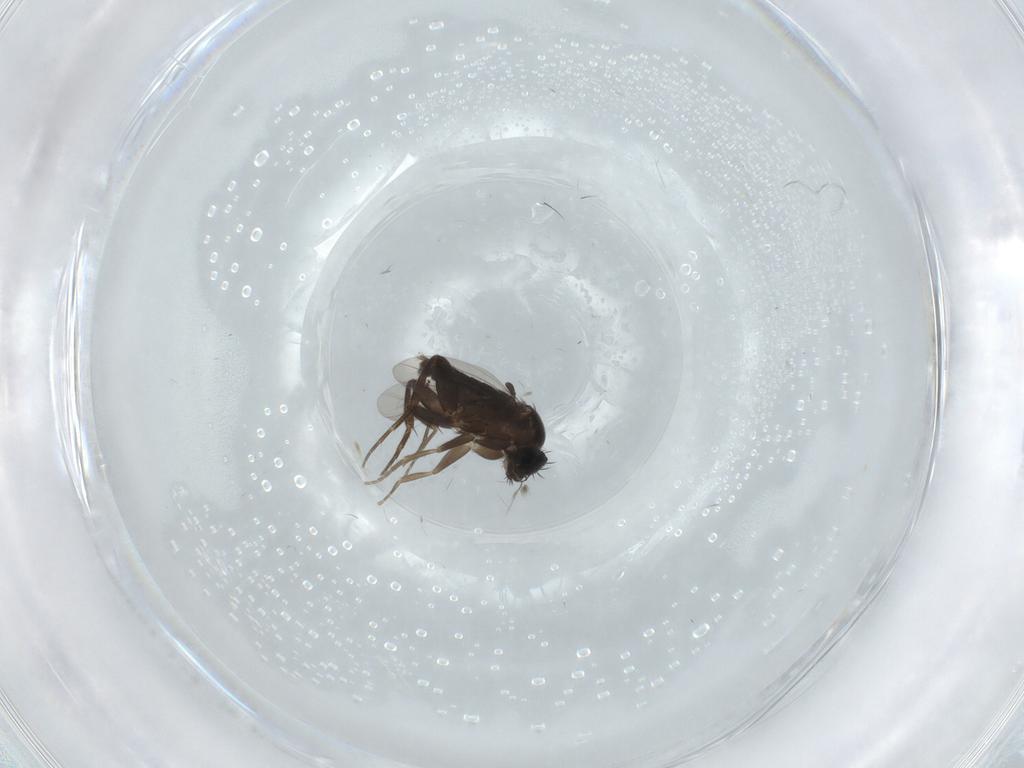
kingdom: Animalia
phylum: Arthropoda
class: Insecta
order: Diptera
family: Phoridae
